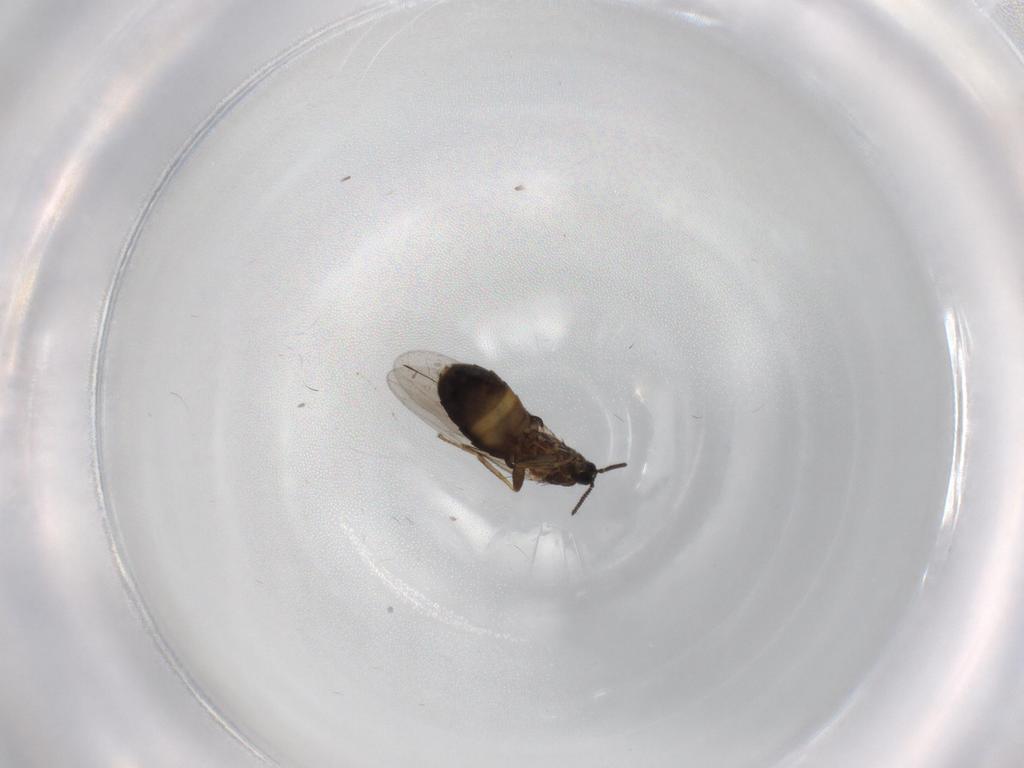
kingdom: Animalia
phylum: Arthropoda
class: Insecta
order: Diptera
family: Scatopsidae
